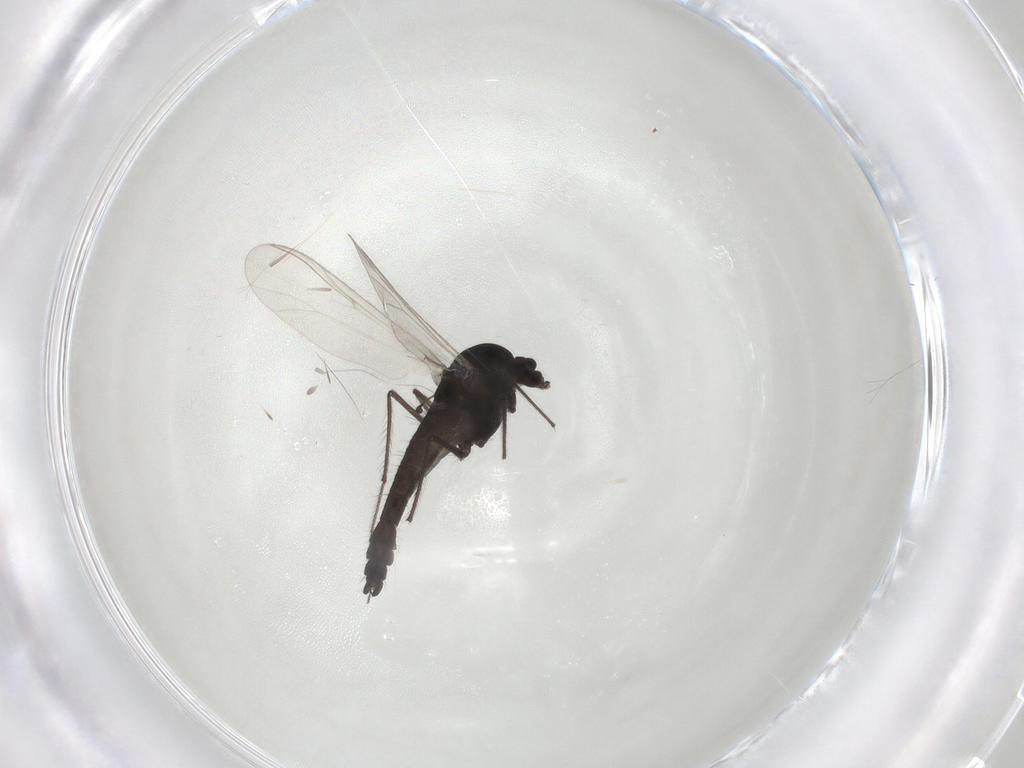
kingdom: Animalia
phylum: Arthropoda
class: Insecta
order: Diptera
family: Chironomidae
